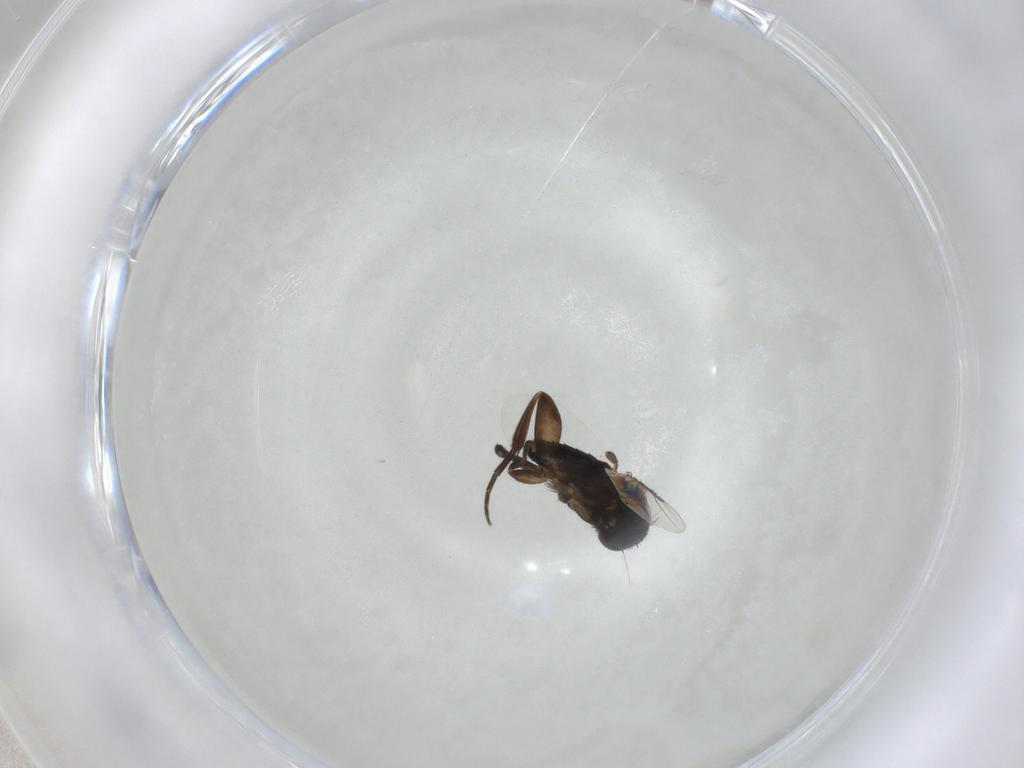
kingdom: Animalia
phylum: Arthropoda
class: Insecta
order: Diptera
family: Phoridae
